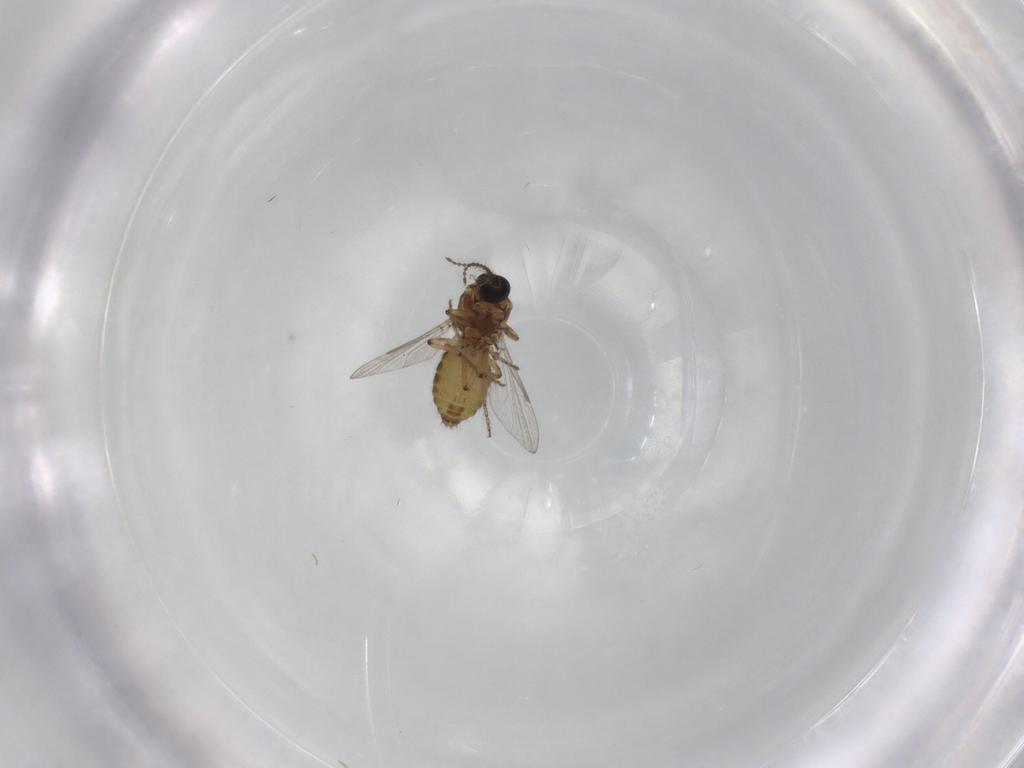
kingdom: Animalia
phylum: Arthropoda
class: Insecta
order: Diptera
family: Ceratopogonidae
